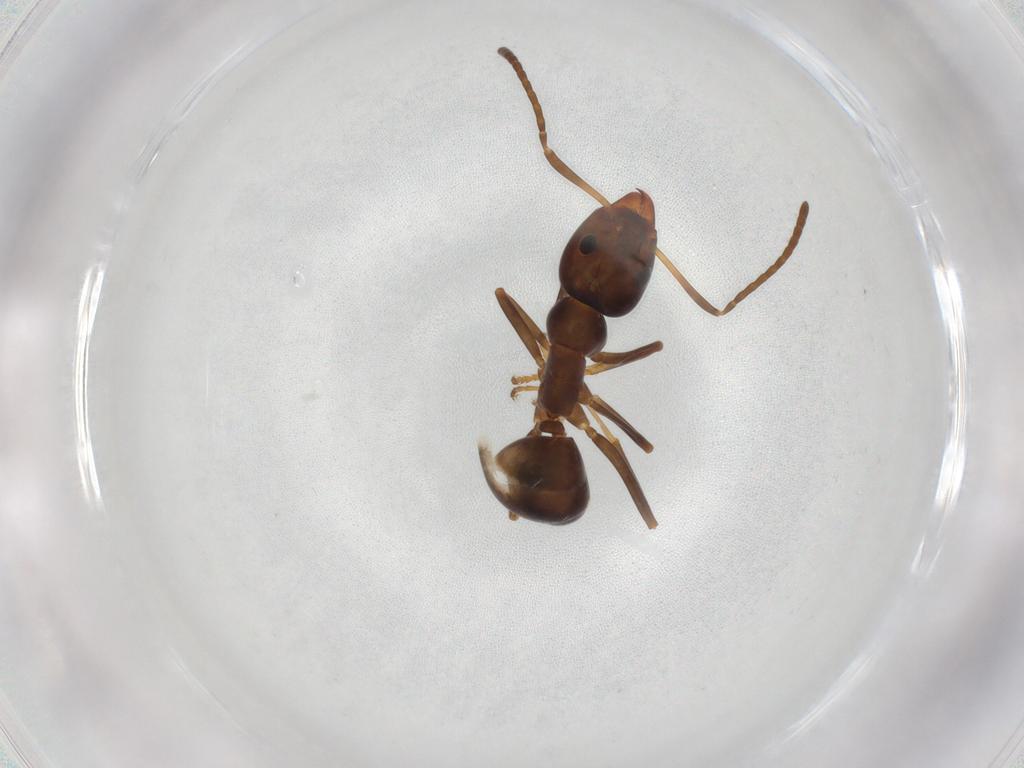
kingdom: Animalia
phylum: Arthropoda
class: Insecta
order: Hymenoptera
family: Formicidae
